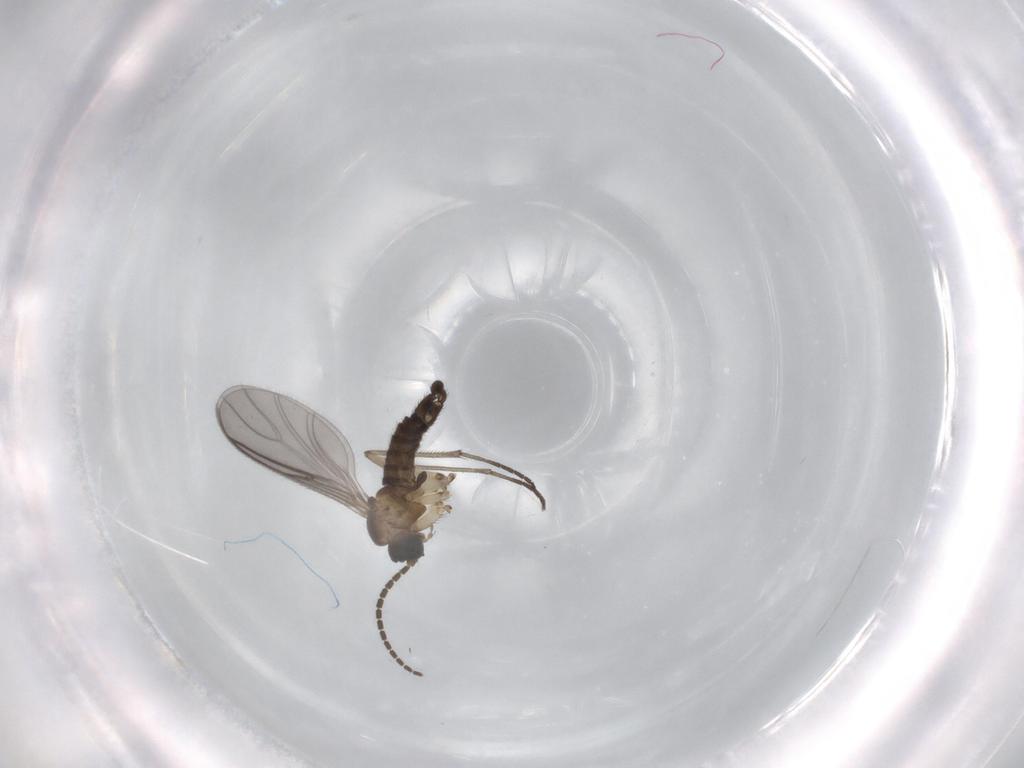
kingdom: Animalia
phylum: Arthropoda
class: Insecta
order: Diptera
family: Sciaridae
